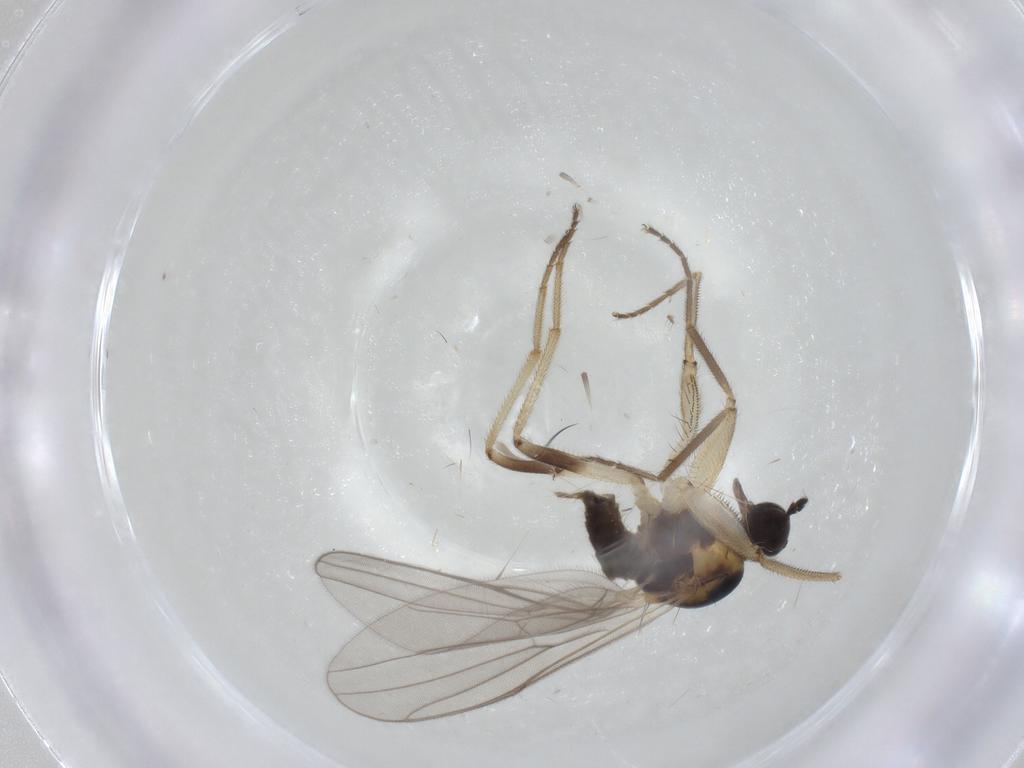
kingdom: Animalia
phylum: Arthropoda
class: Insecta
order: Diptera
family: Hybotidae
